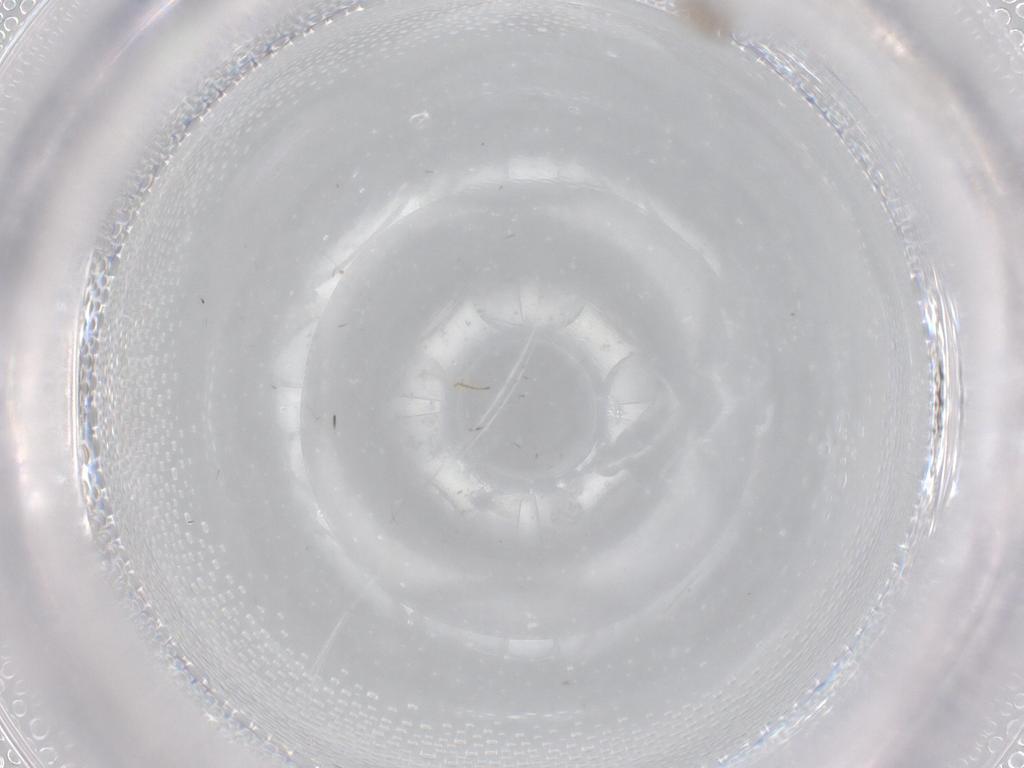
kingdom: Animalia
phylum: Arthropoda
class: Insecta
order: Diptera
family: Cecidomyiidae
